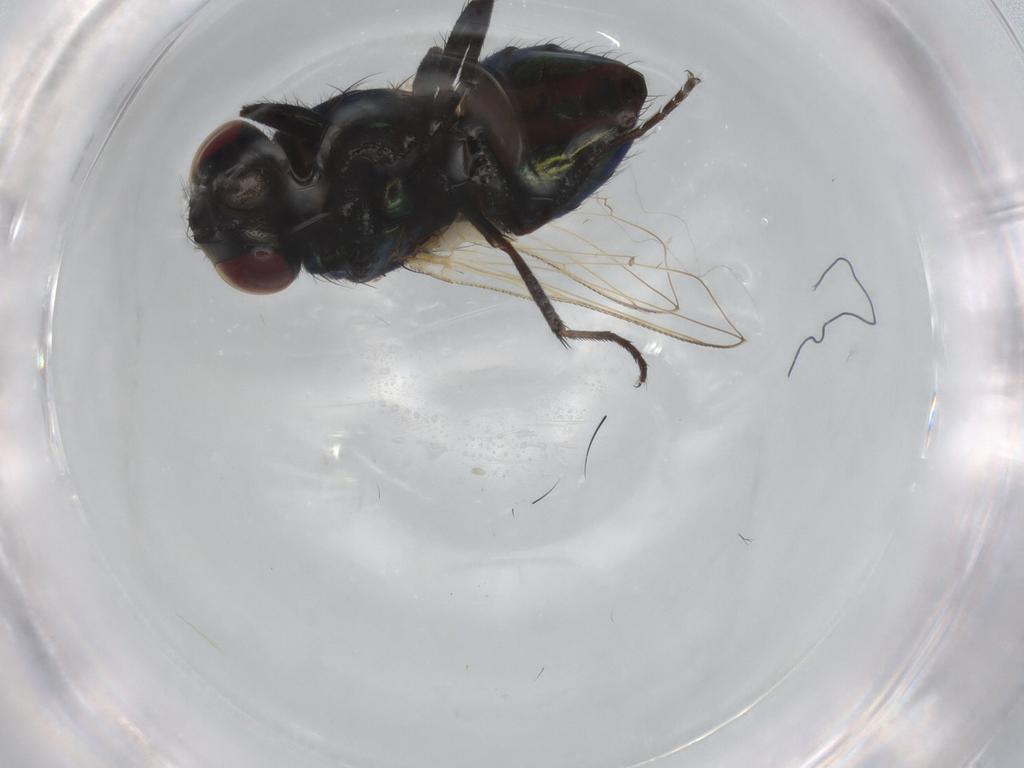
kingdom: Animalia
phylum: Arthropoda
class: Insecta
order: Diptera
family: Muscidae
